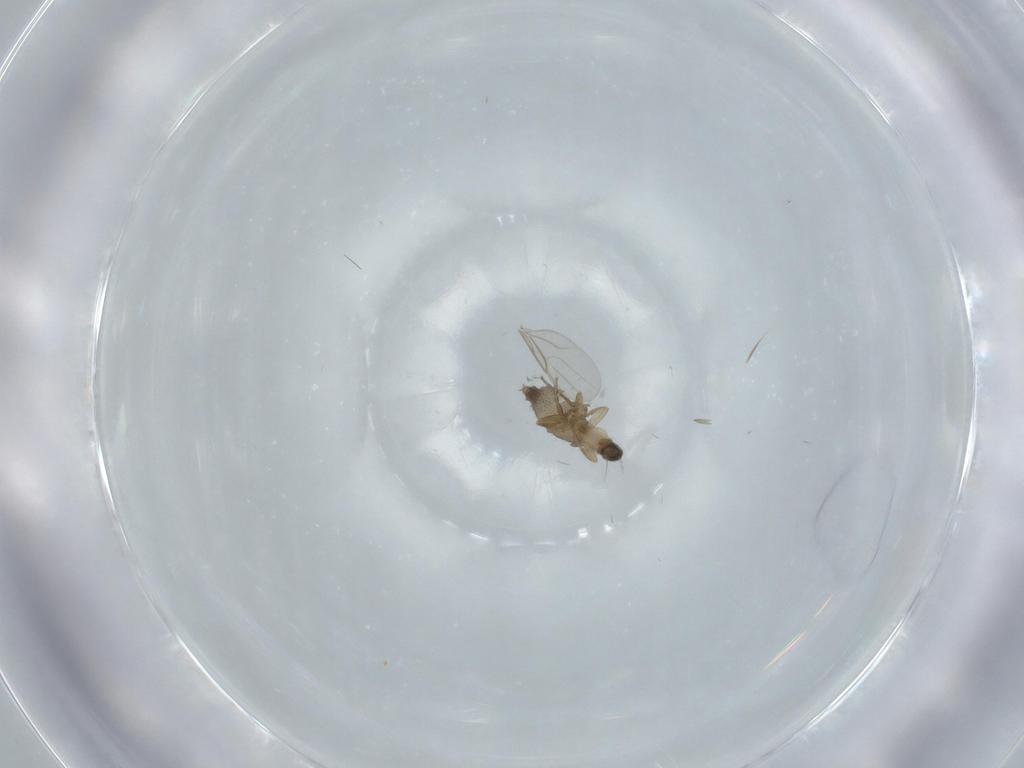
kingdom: Animalia
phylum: Arthropoda
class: Insecta
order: Diptera
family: Phoridae
